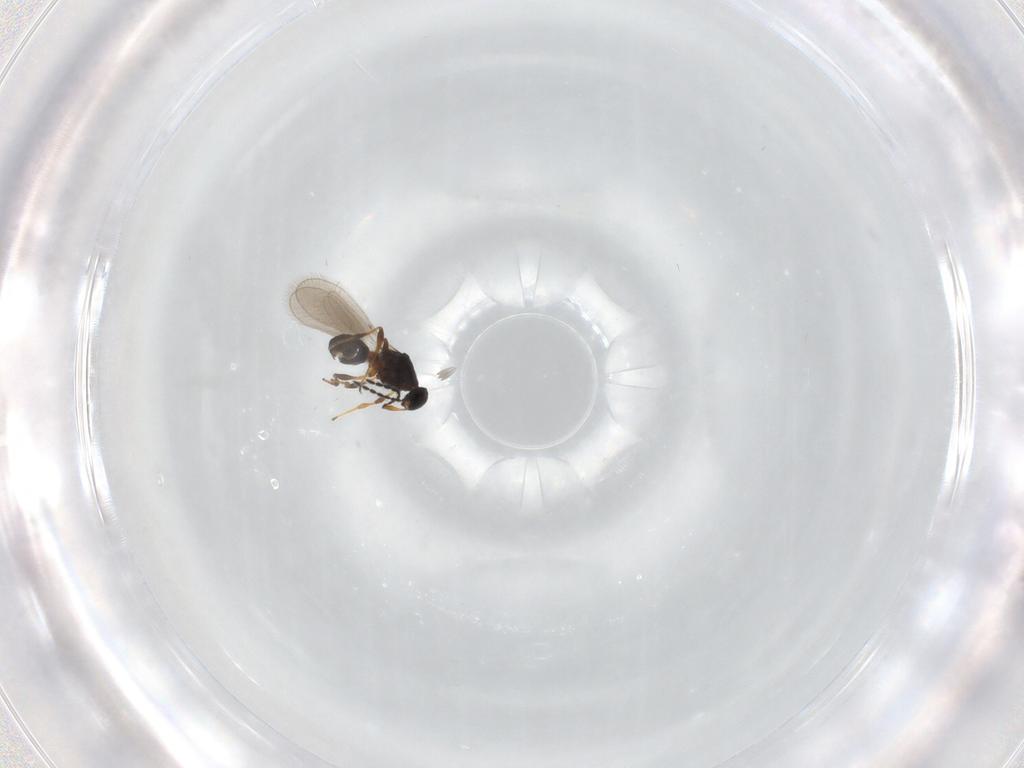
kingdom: Animalia
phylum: Arthropoda
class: Insecta
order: Hymenoptera
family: Platygastridae
